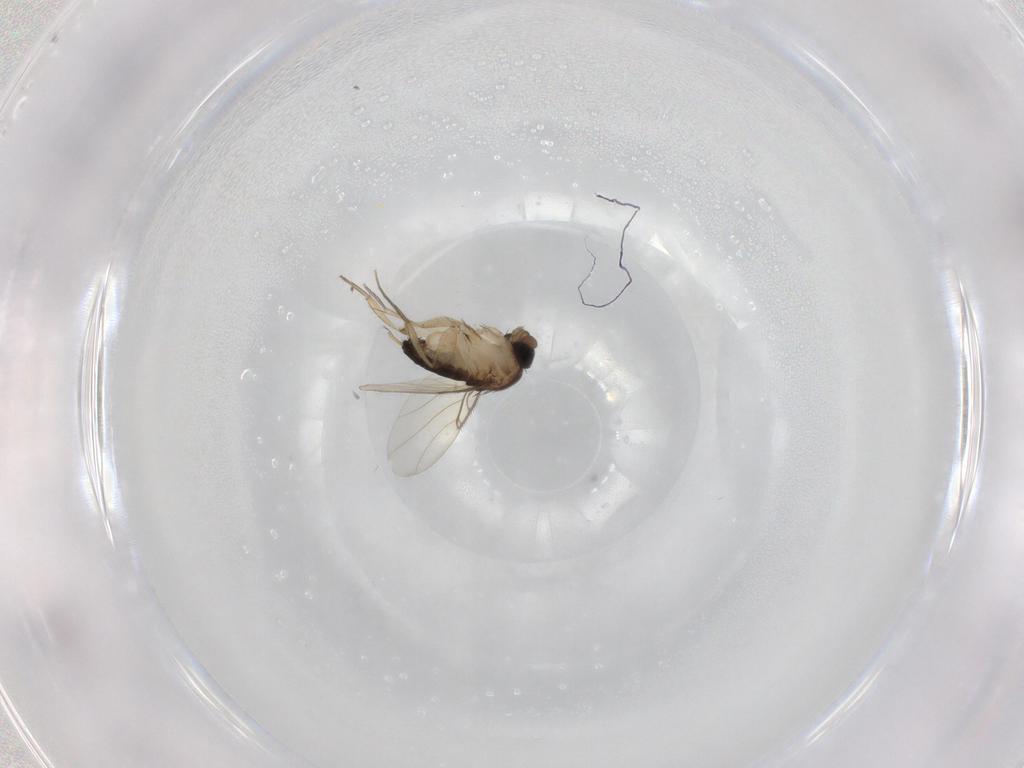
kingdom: Animalia
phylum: Arthropoda
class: Insecta
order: Diptera
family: Phoridae
